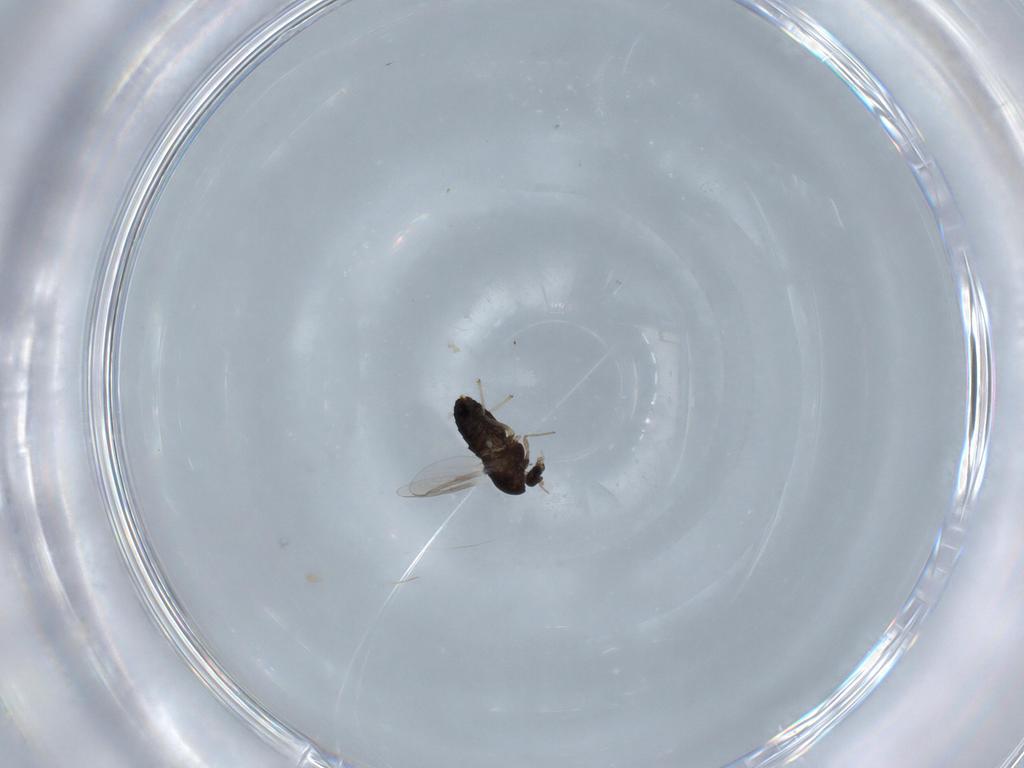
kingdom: Animalia
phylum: Arthropoda
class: Insecta
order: Diptera
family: Chironomidae
